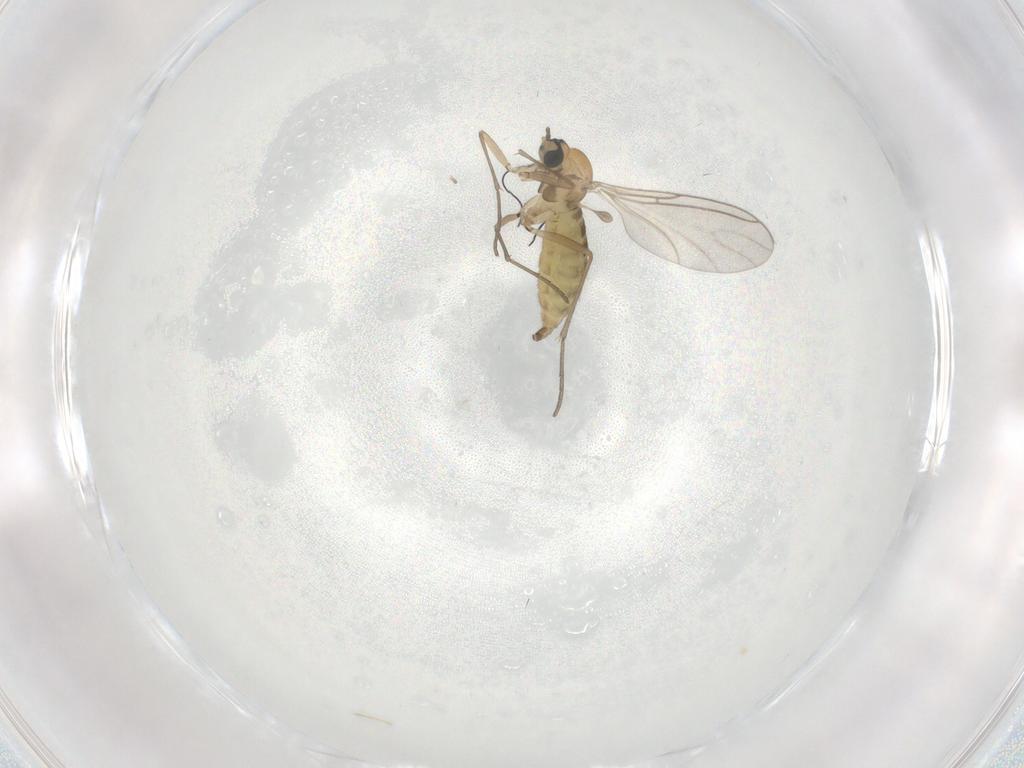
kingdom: Animalia
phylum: Arthropoda
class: Insecta
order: Diptera
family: Sciaridae
